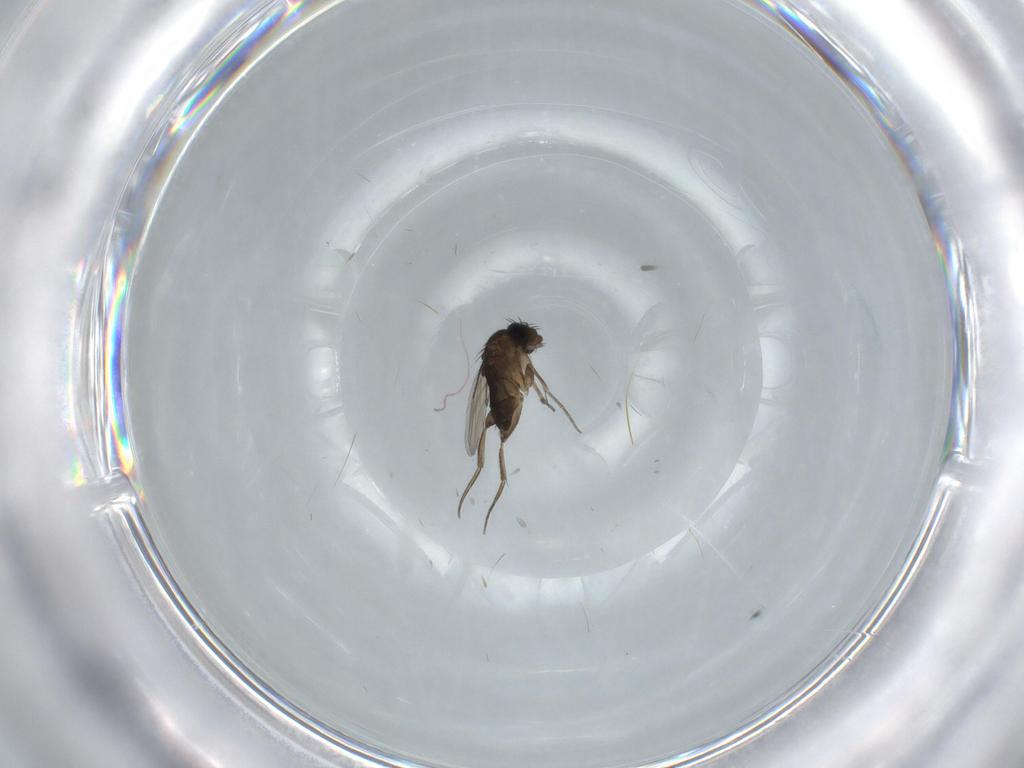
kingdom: Animalia
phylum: Arthropoda
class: Insecta
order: Diptera
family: Phoridae
